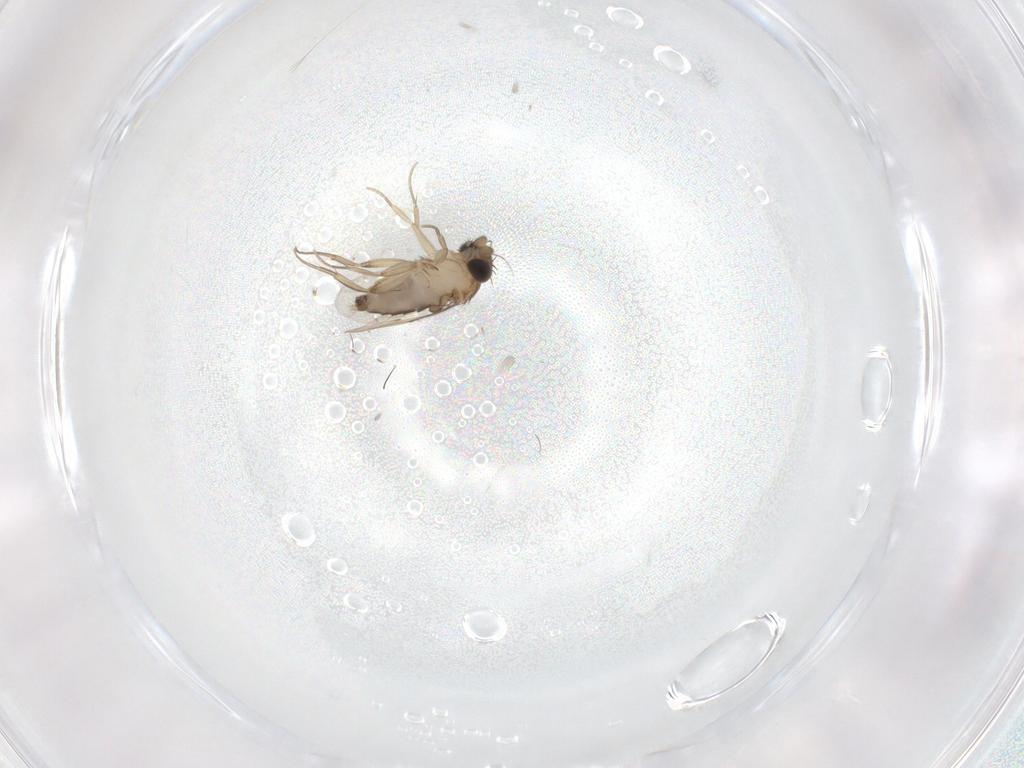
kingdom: Animalia
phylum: Arthropoda
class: Insecta
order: Diptera
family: Phoridae
